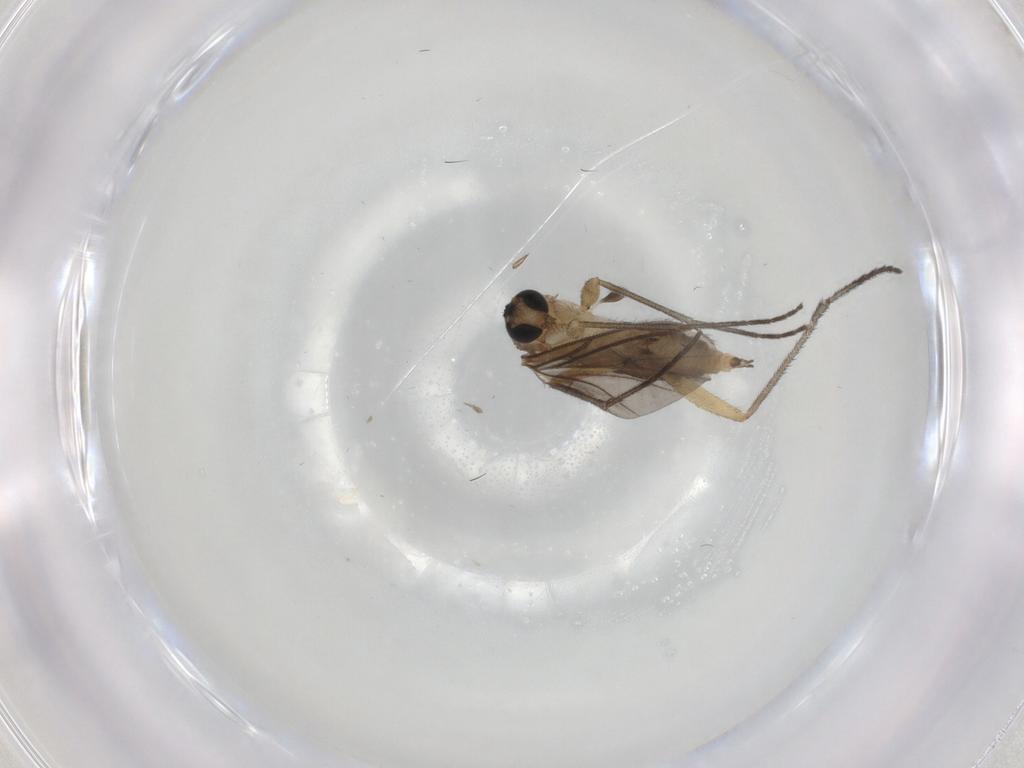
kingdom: Animalia
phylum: Arthropoda
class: Insecta
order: Diptera
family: Sciaridae
